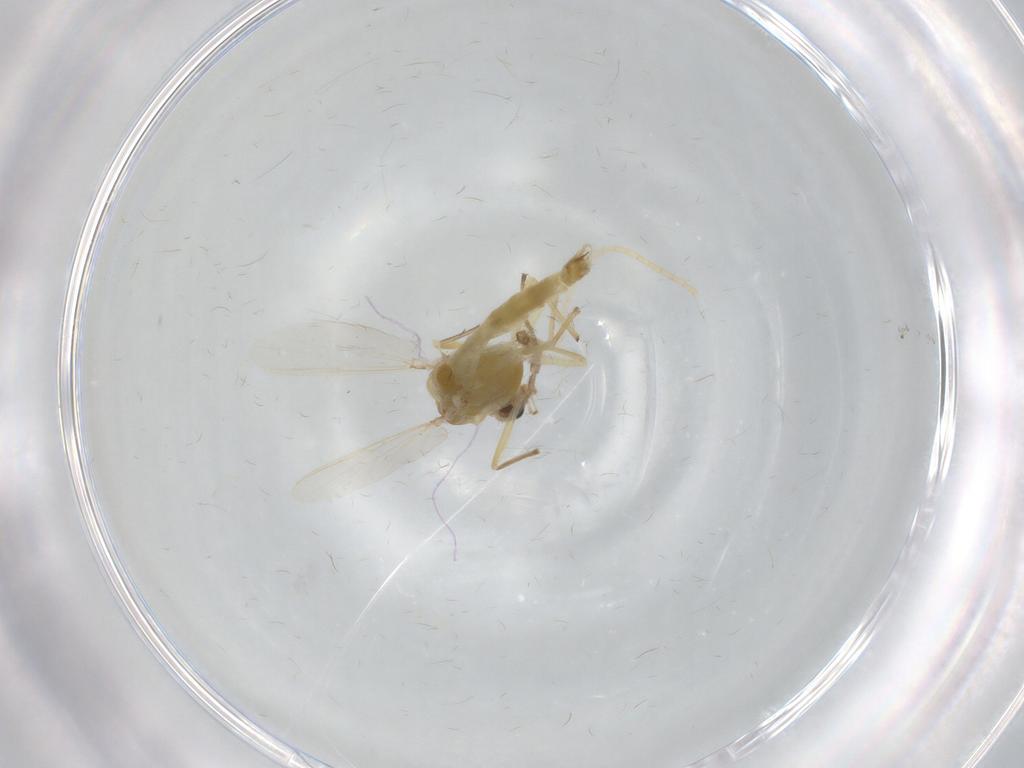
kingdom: Animalia
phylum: Arthropoda
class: Insecta
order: Diptera
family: Chironomidae
